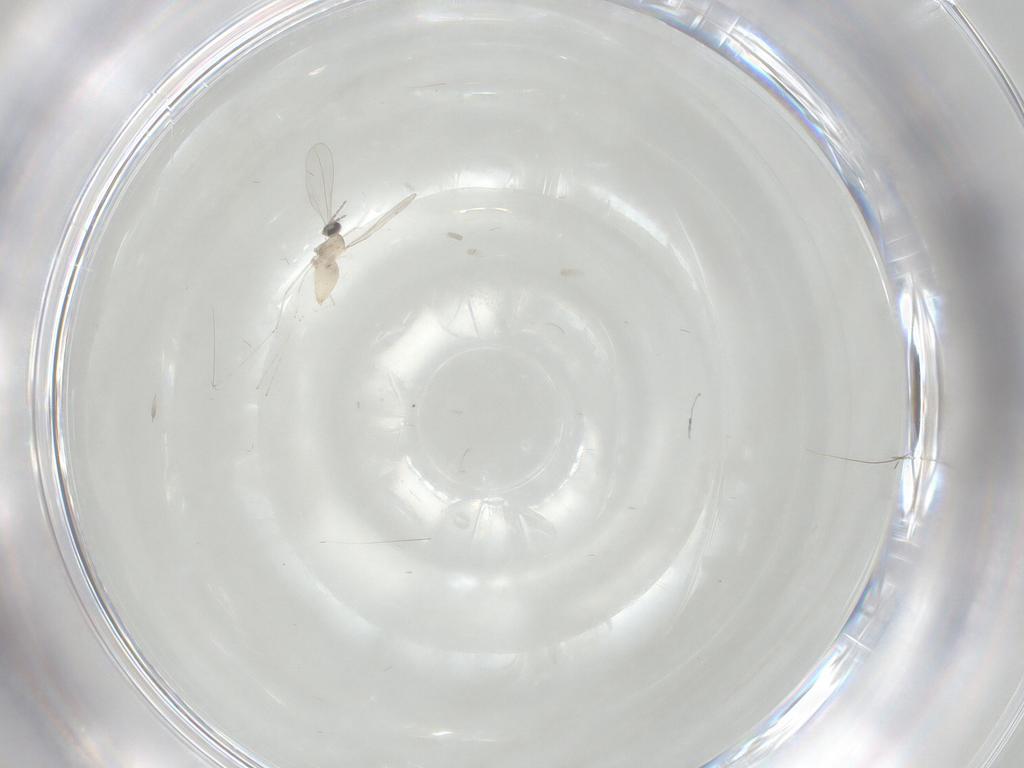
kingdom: Animalia
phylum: Arthropoda
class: Insecta
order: Diptera
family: Cecidomyiidae
